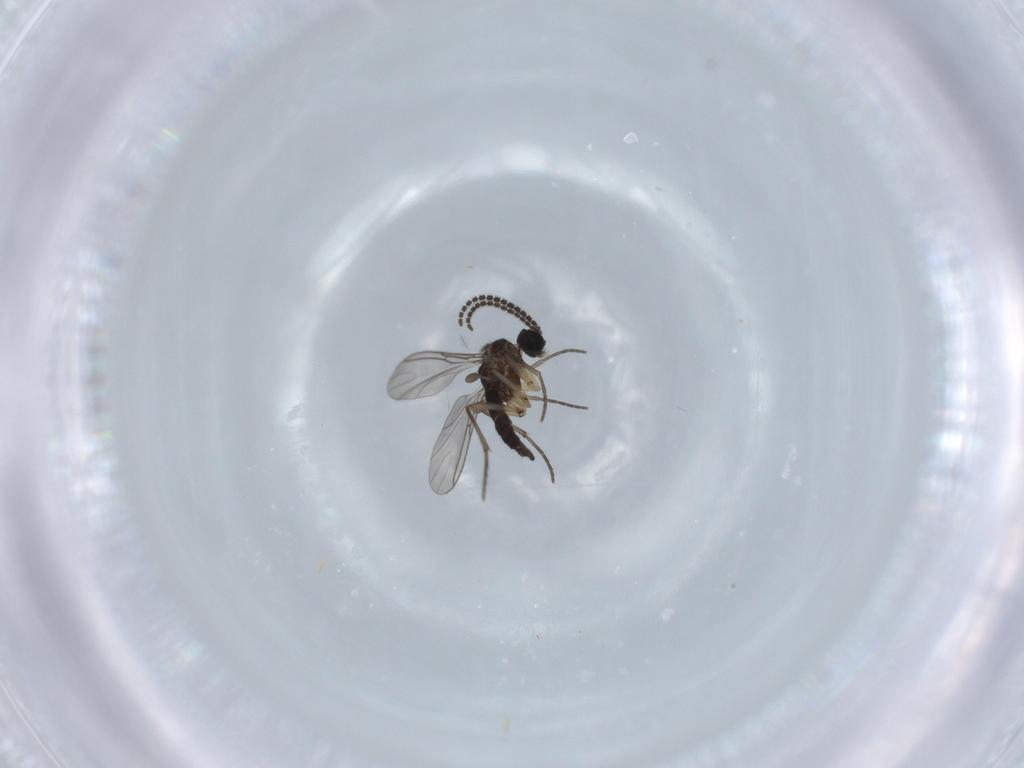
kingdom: Animalia
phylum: Arthropoda
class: Insecta
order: Diptera
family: Sciaridae
